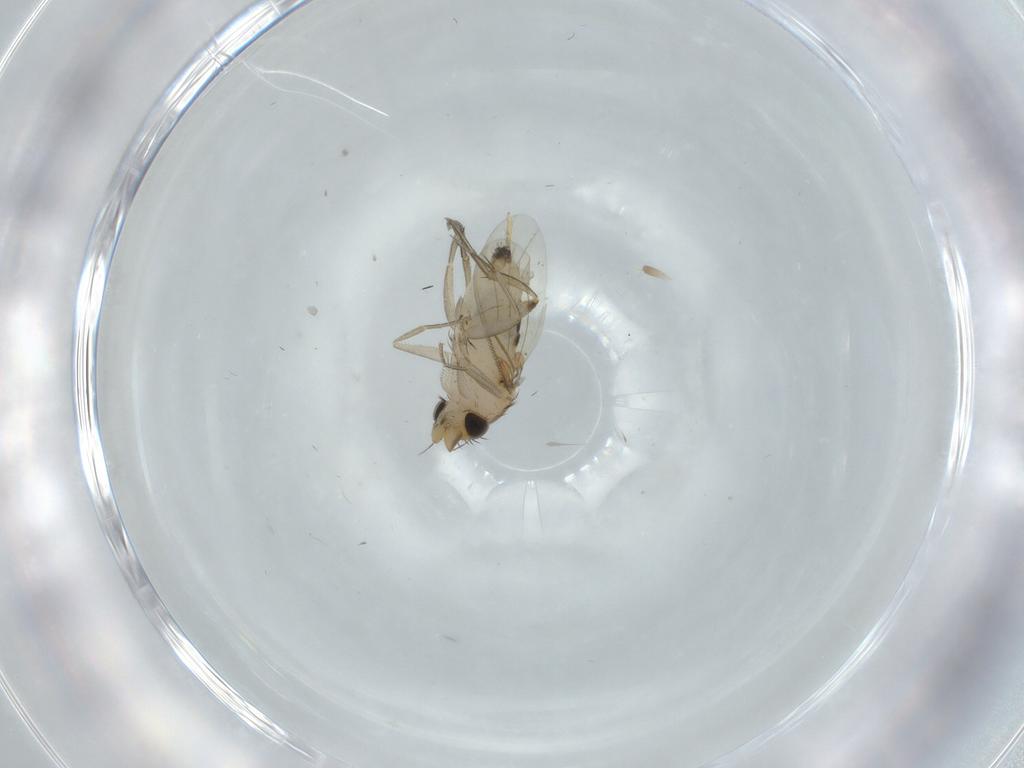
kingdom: Animalia
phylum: Arthropoda
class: Insecta
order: Diptera
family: Phoridae
